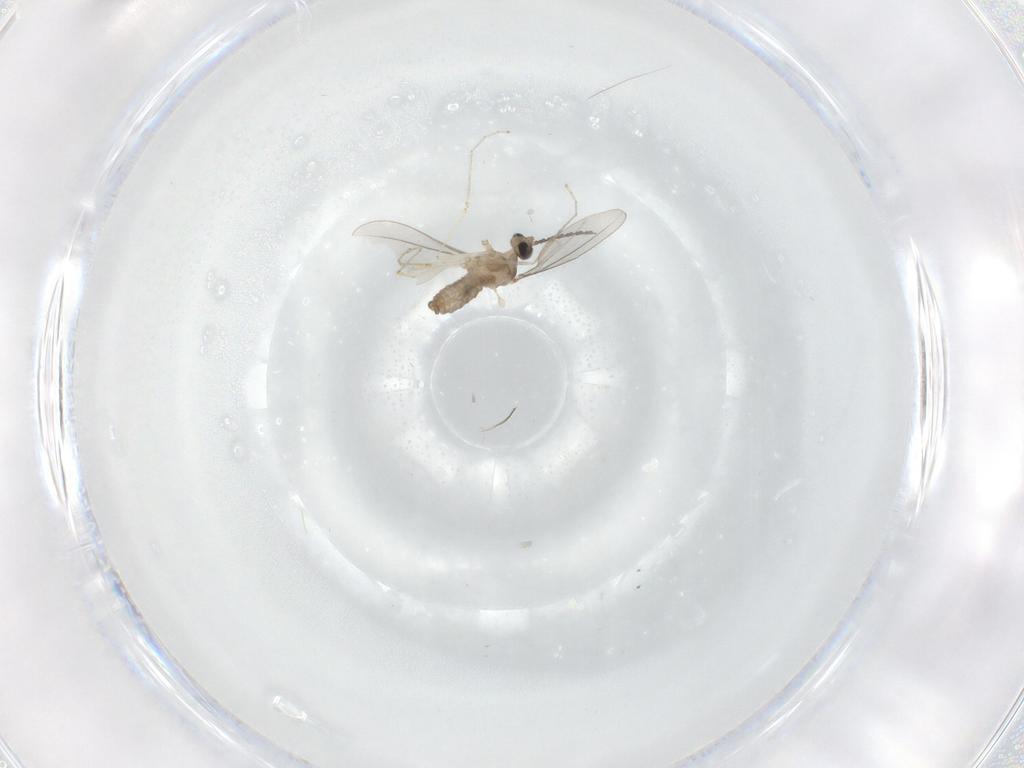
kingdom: Animalia
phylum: Arthropoda
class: Insecta
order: Diptera
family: Cecidomyiidae
